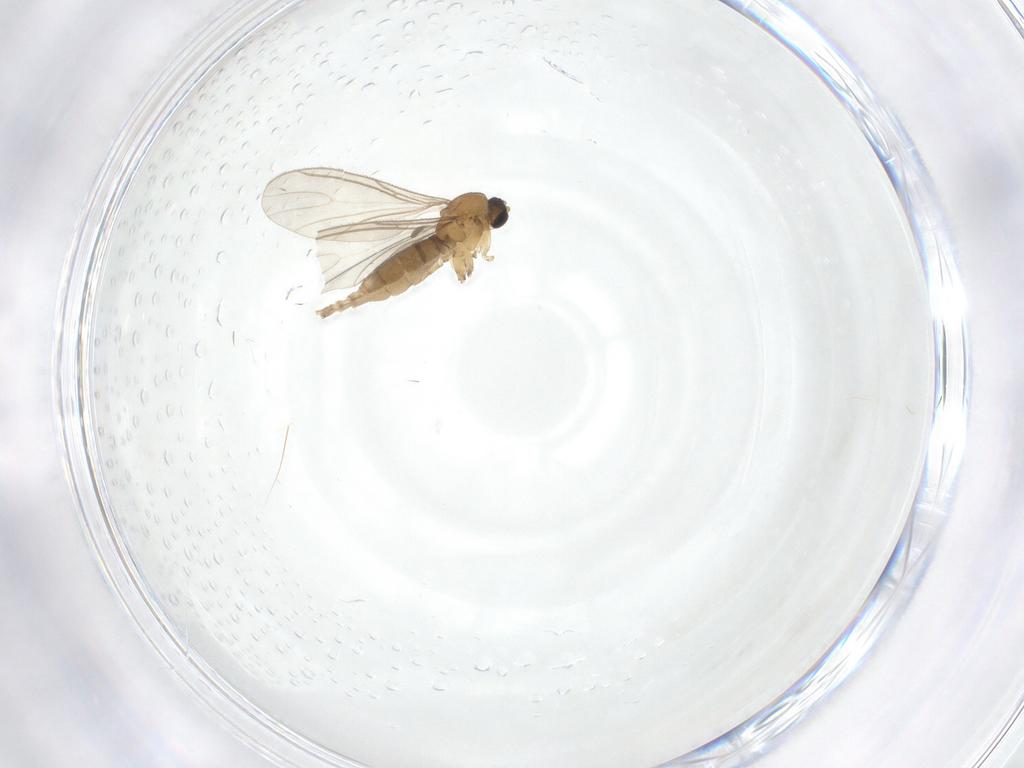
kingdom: Animalia
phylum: Arthropoda
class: Insecta
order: Diptera
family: Sciaridae
